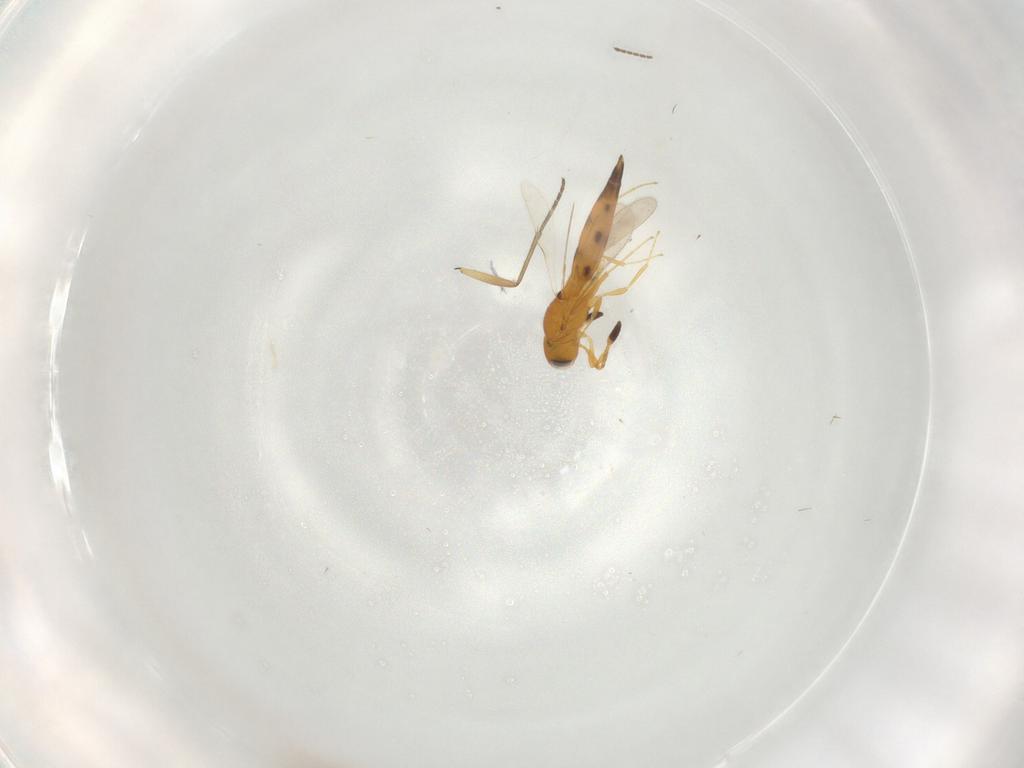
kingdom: Animalia
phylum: Arthropoda
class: Insecta
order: Hymenoptera
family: Scelionidae
